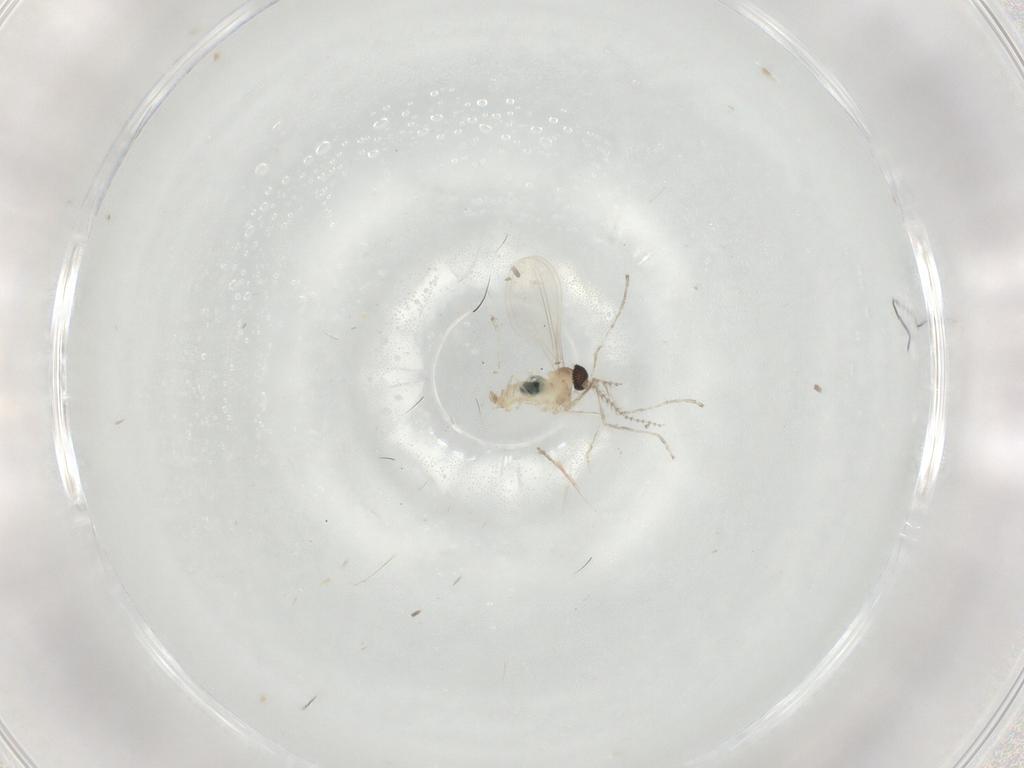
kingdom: Animalia
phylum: Arthropoda
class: Insecta
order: Diptera
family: Cecidomyiidae
